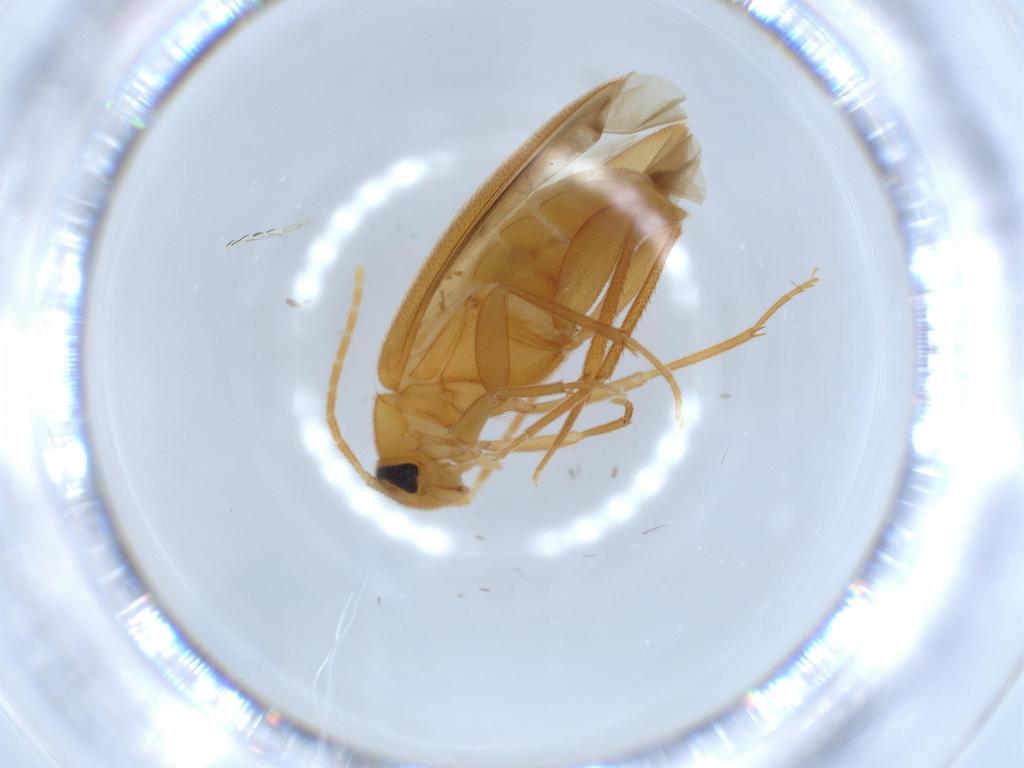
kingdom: Animalia
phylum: Arthropoda
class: Insecta
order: Coleoptera
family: Scraptiidae
